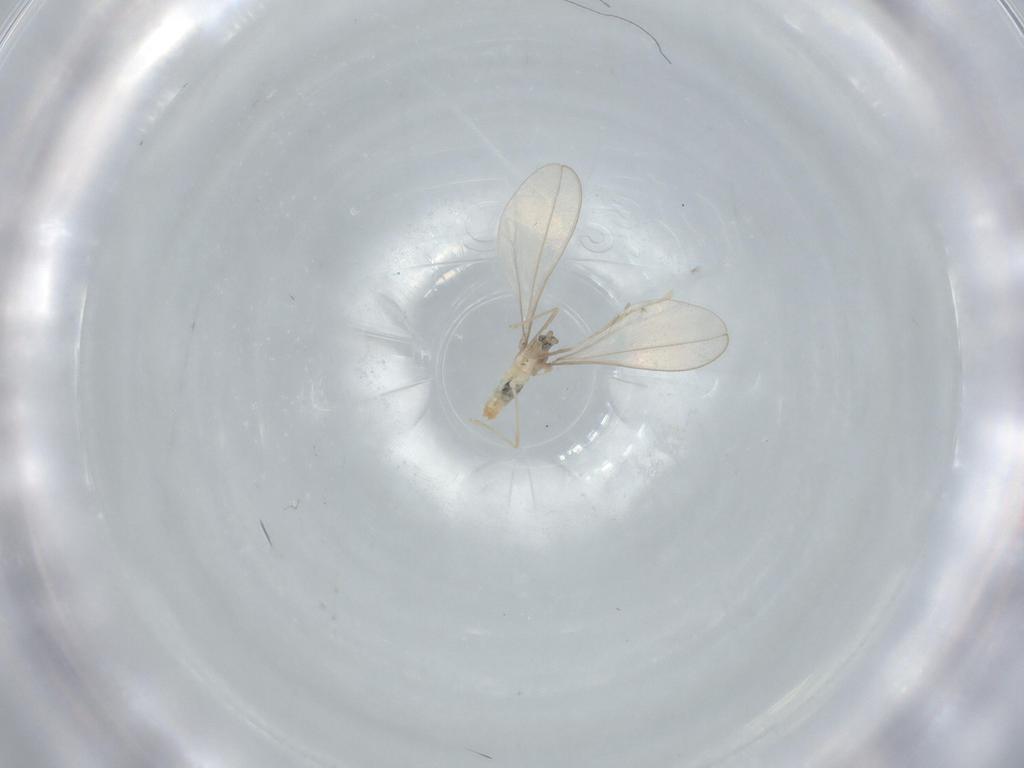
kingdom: Animalia
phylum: Arthropoda
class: Insecta
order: Diptera
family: Cecidomyiidae
